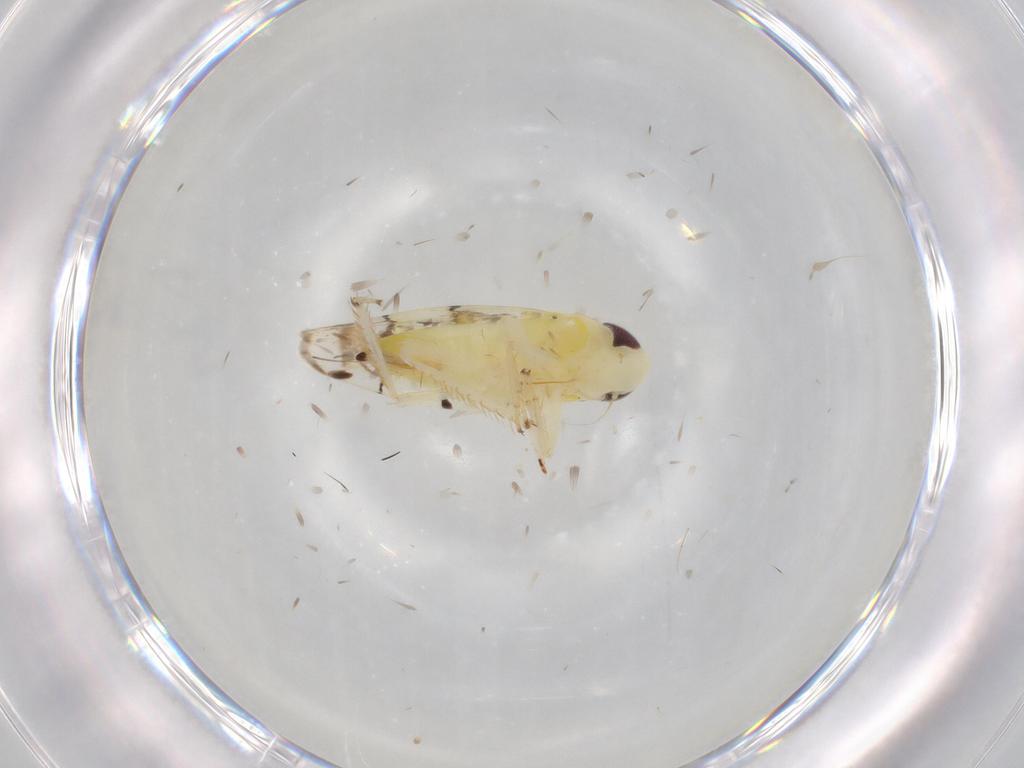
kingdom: Animalia
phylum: Arthropoda
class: Insecta
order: Hemiptera
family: Cicadellidae
